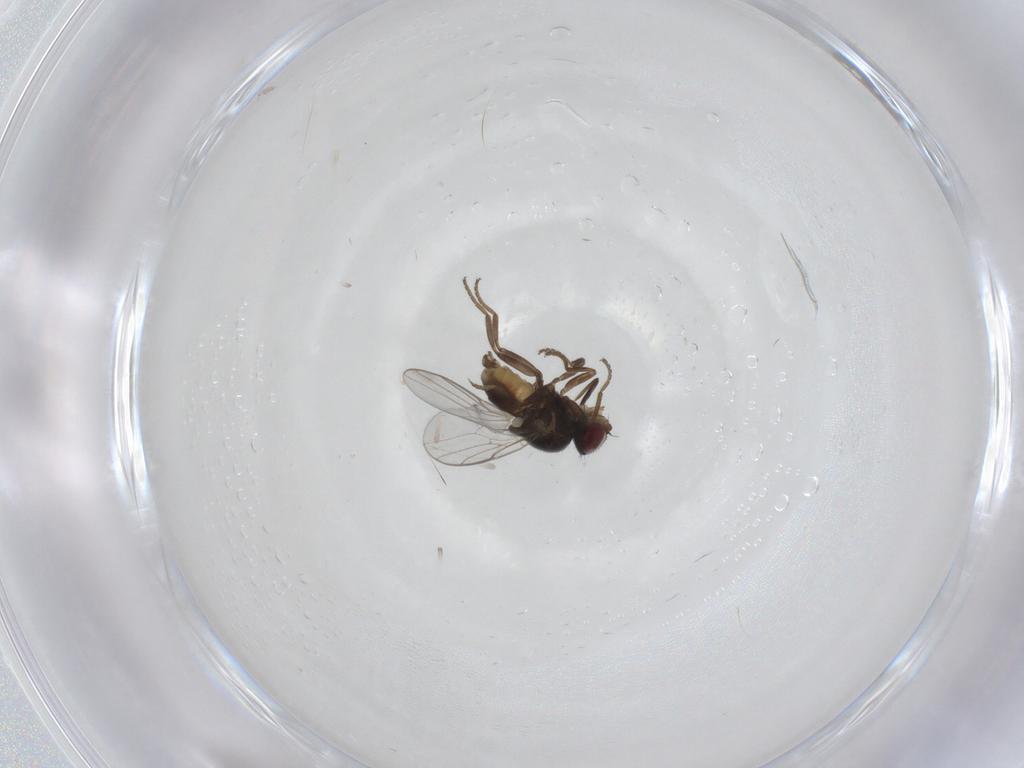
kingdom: Animalia
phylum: Arthropoda
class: Insecta
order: Diptera
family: Chloropidae
